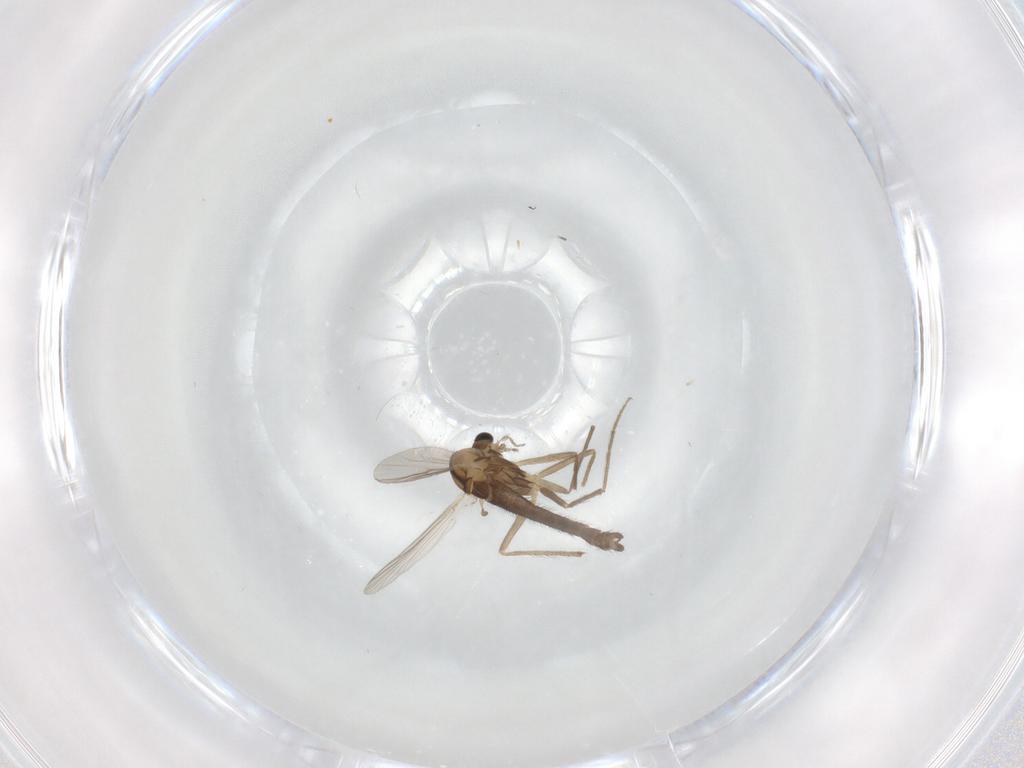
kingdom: Animalia
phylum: Arthropoda
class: Insecta
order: Diptera
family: Chironomidae
